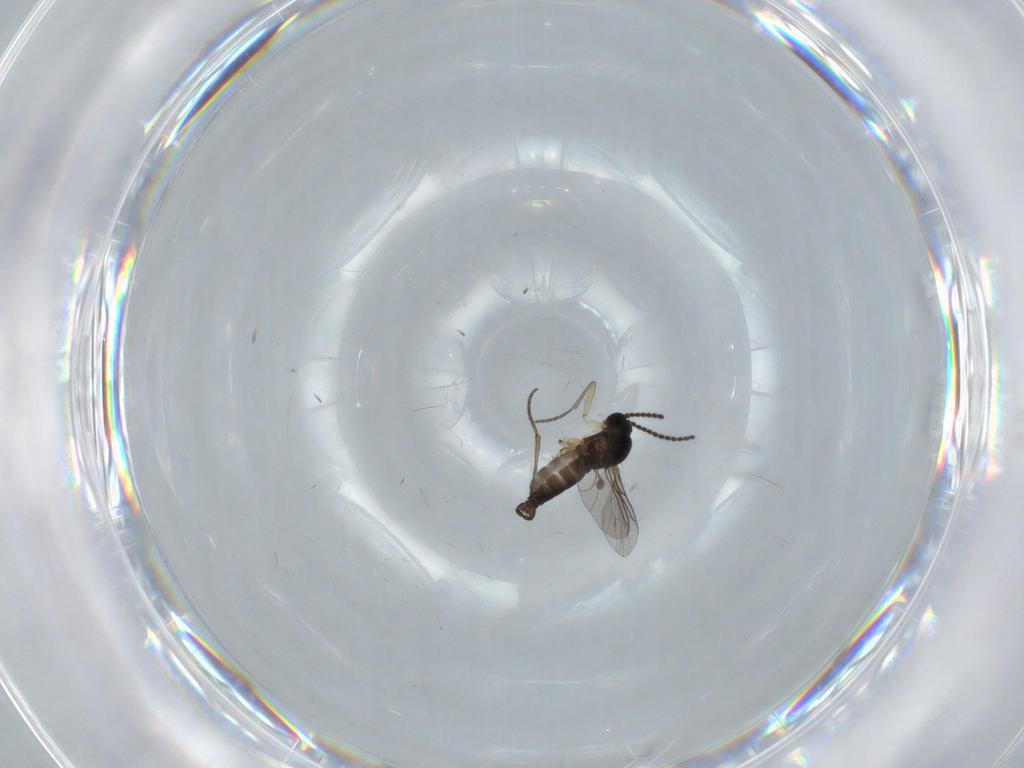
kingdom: Animalia
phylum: Arthropoda
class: Insecta
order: Diptera
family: Sciaridae
